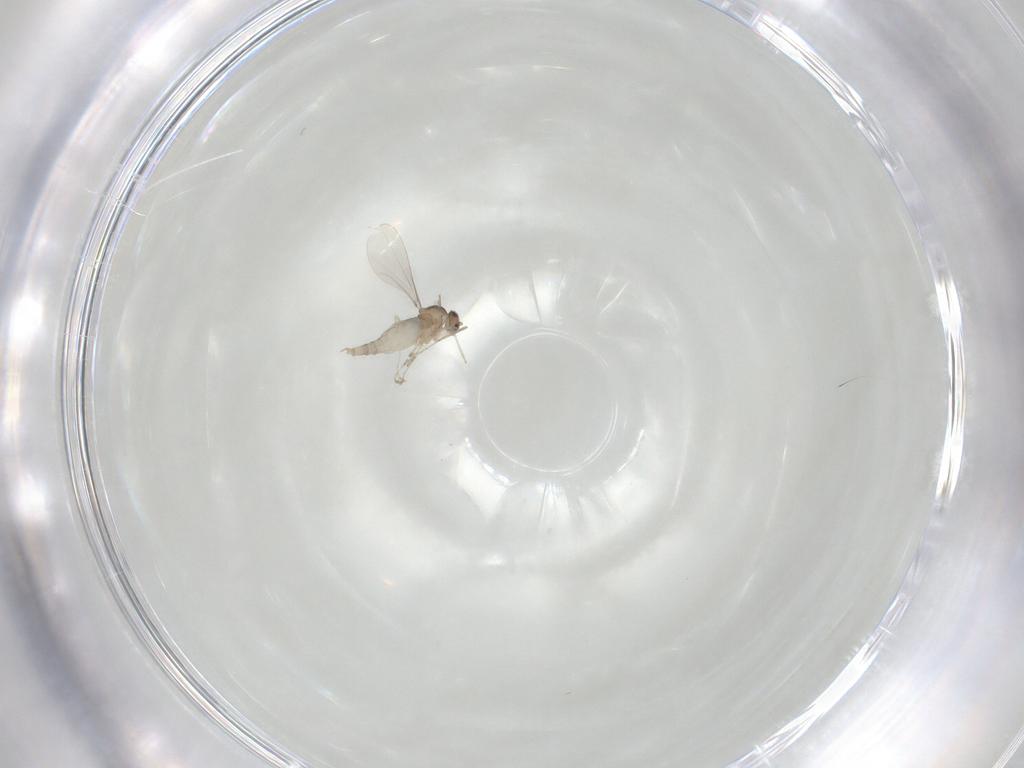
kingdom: Animalia
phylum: Arthropoda
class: Insecta
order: Diptera
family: Cecidomyiidae
